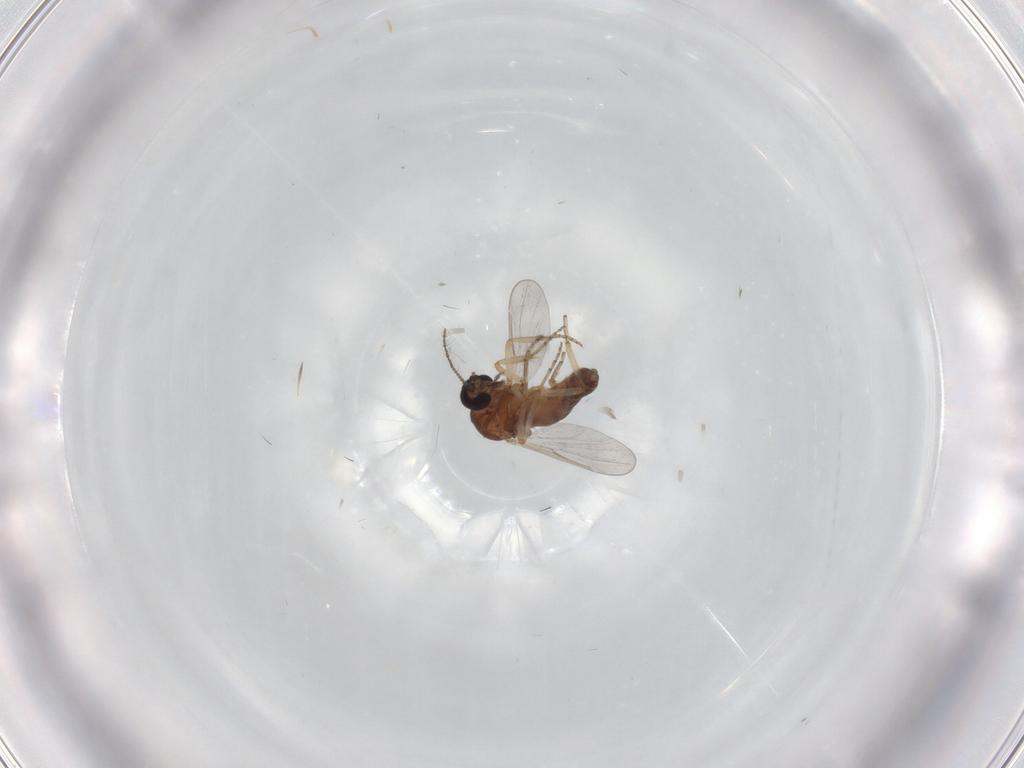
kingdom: Animalia
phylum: Arthropoda
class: Insecta
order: Diptera
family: Ceratopogonidae
